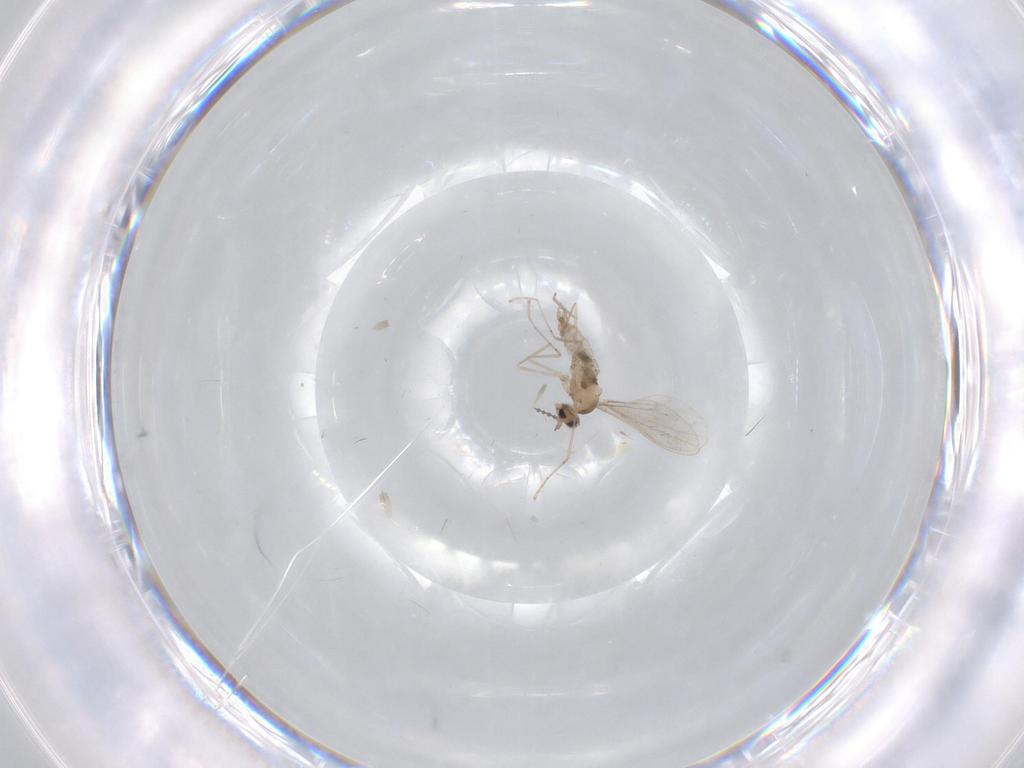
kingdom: Animalia
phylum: Arthropoda
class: Insecta
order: Diptera
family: Cecidomyiidae
